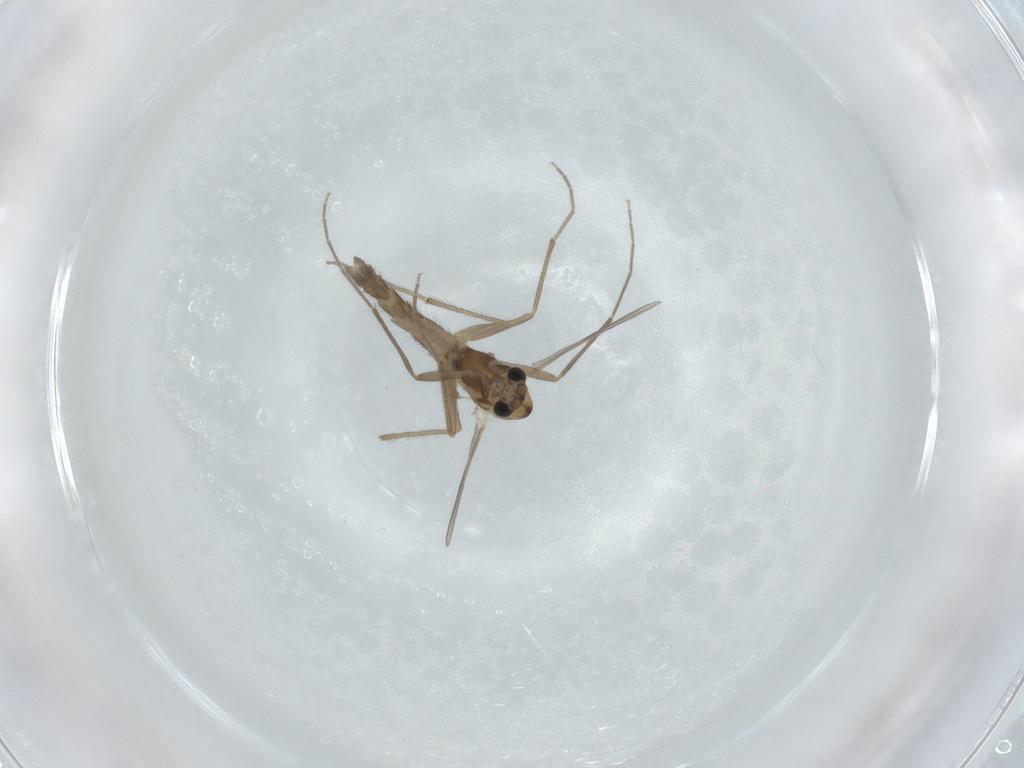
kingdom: Animalia
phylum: Arthropoda
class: Insecta
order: Diptera
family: Chironomidae
